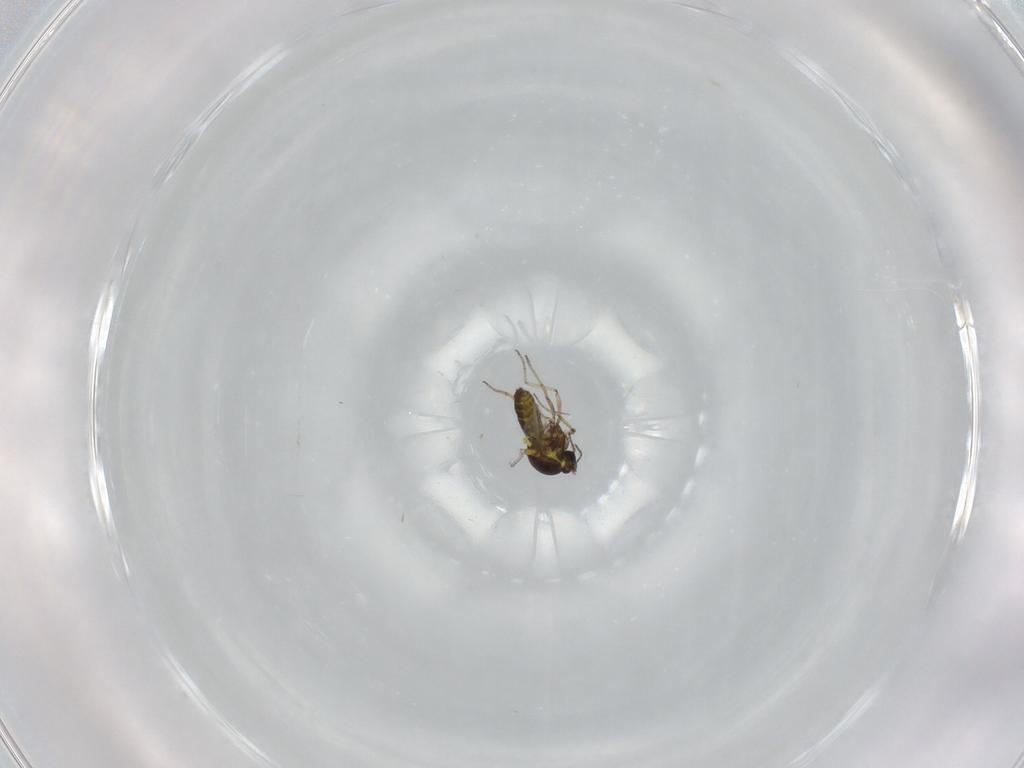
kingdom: Animalia
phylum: Arthropoda
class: Insecta
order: Diptera
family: Ceratopogonidae
